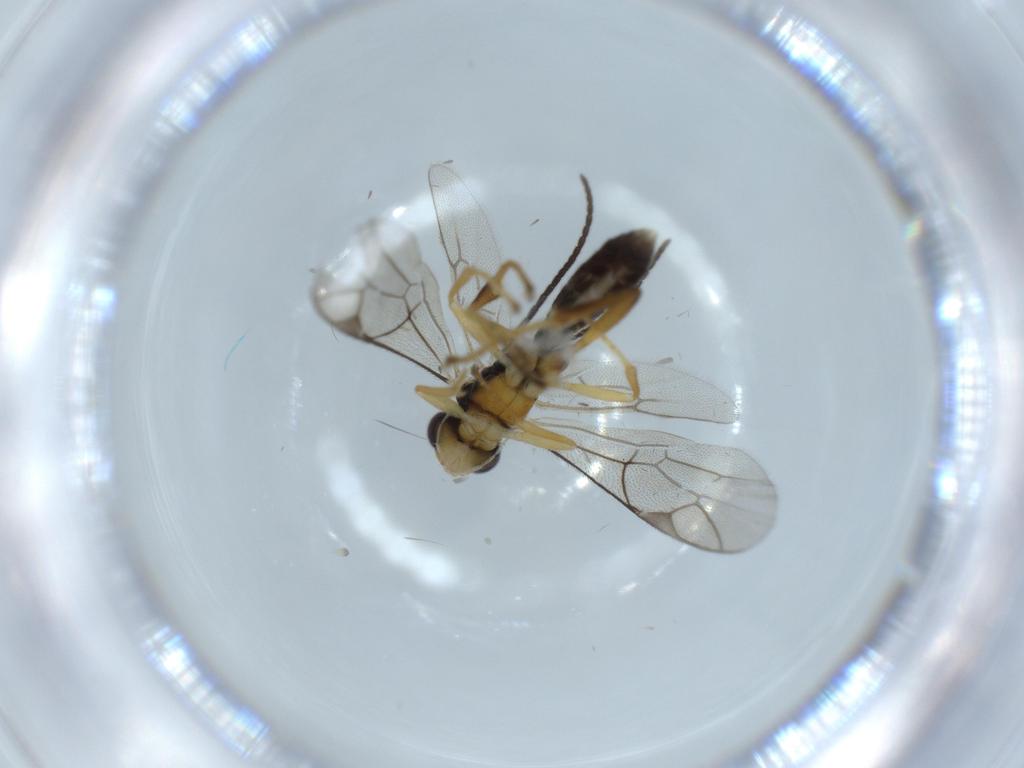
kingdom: Animalia
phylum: Arthropoda
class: Insecta
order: Hymenoptera
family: Scelionidae
